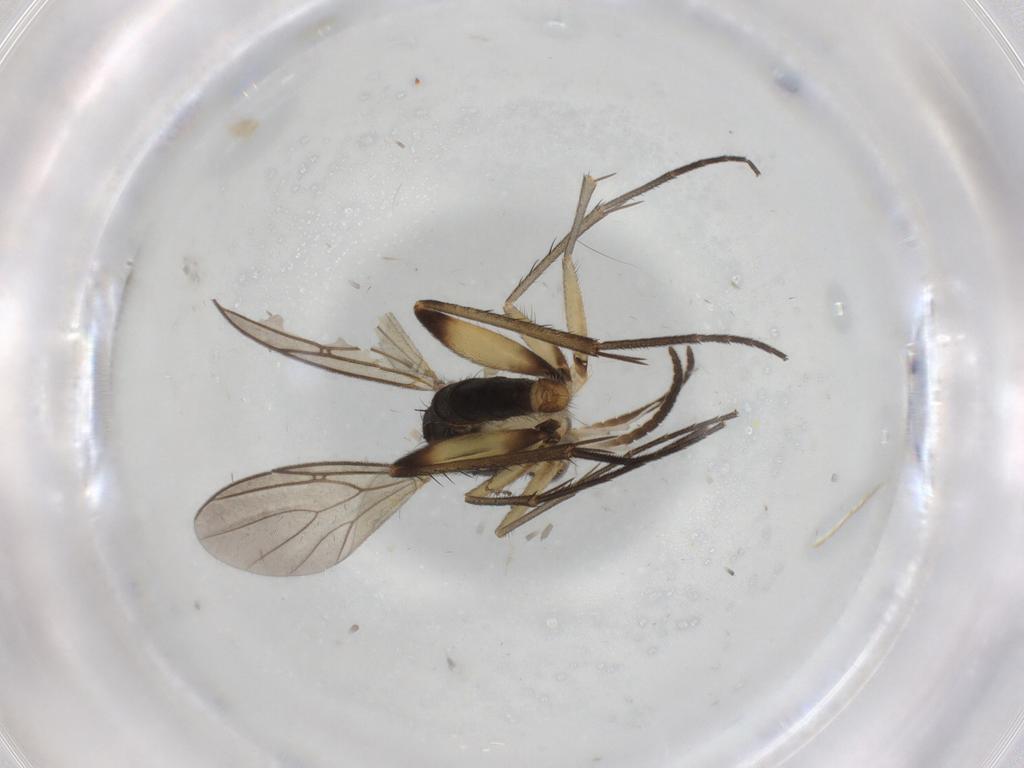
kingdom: Animalia
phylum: Arthropoda
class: Insecta
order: Diptera
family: Mycetophilidae
